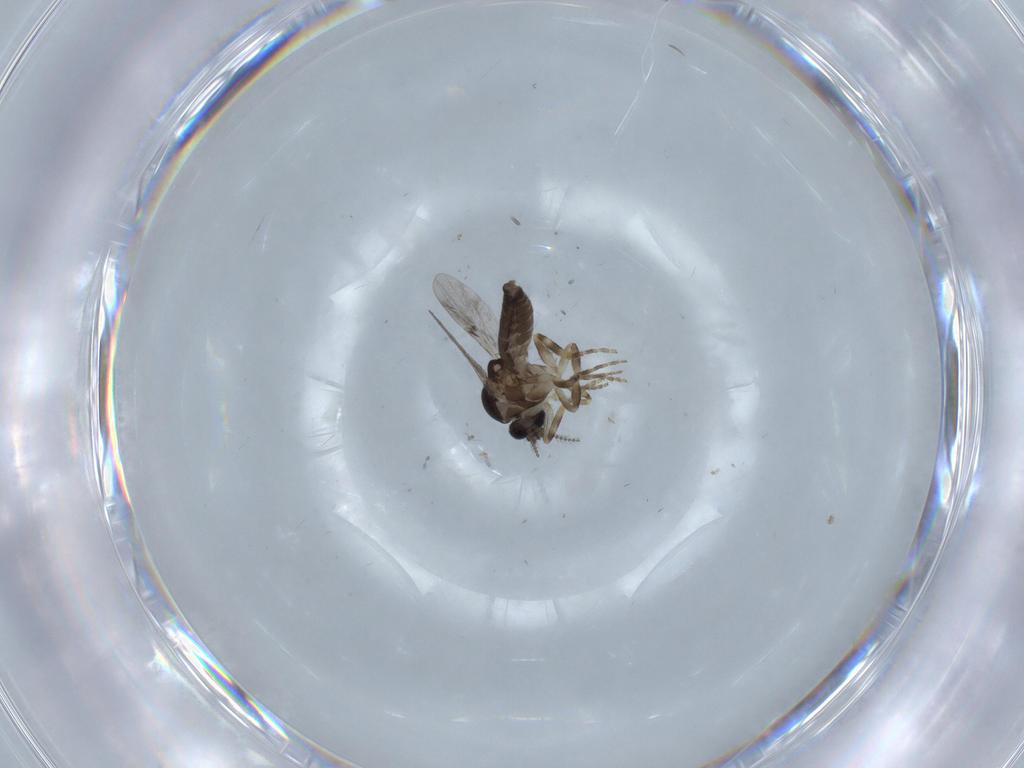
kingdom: Animalia
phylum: Arthropoda
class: Insecta
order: Diptera
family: Ceratopogonidae
